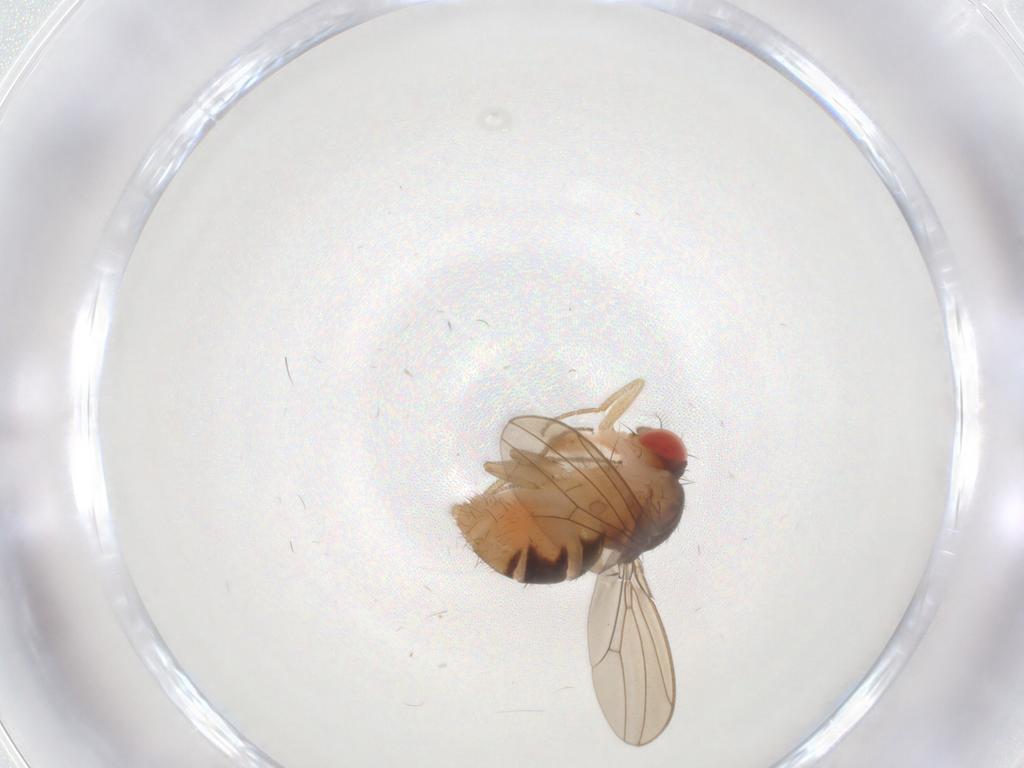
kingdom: Animalia
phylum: Arthropoda
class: Insecta
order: Diptera
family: Drosophilidae
